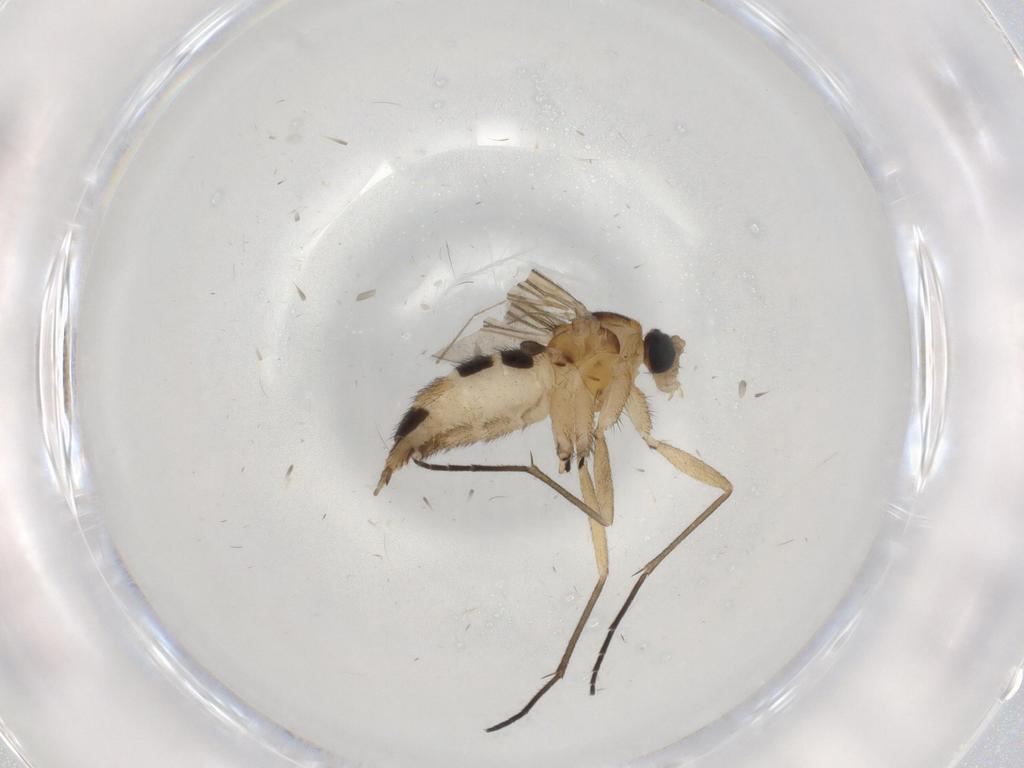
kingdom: Animalia
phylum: Arthropoda
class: Insecta
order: Diptera
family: Sciaridae
